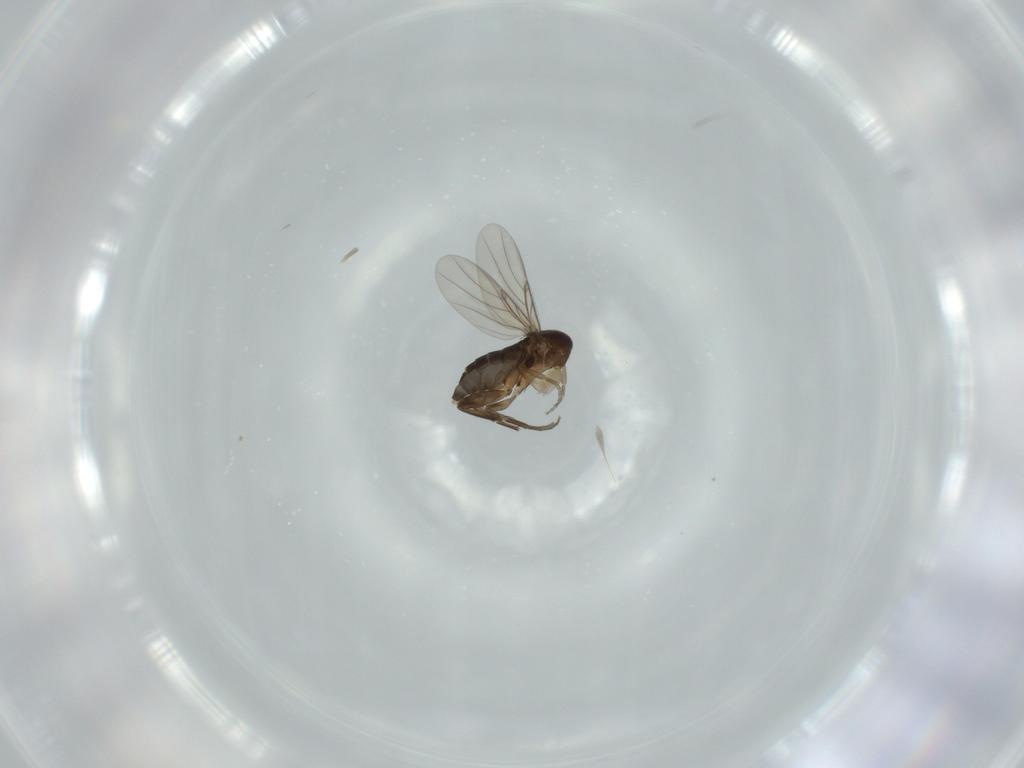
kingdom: Animalia
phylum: Arthropoda
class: Insecta
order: Diptera
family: Phoridae
